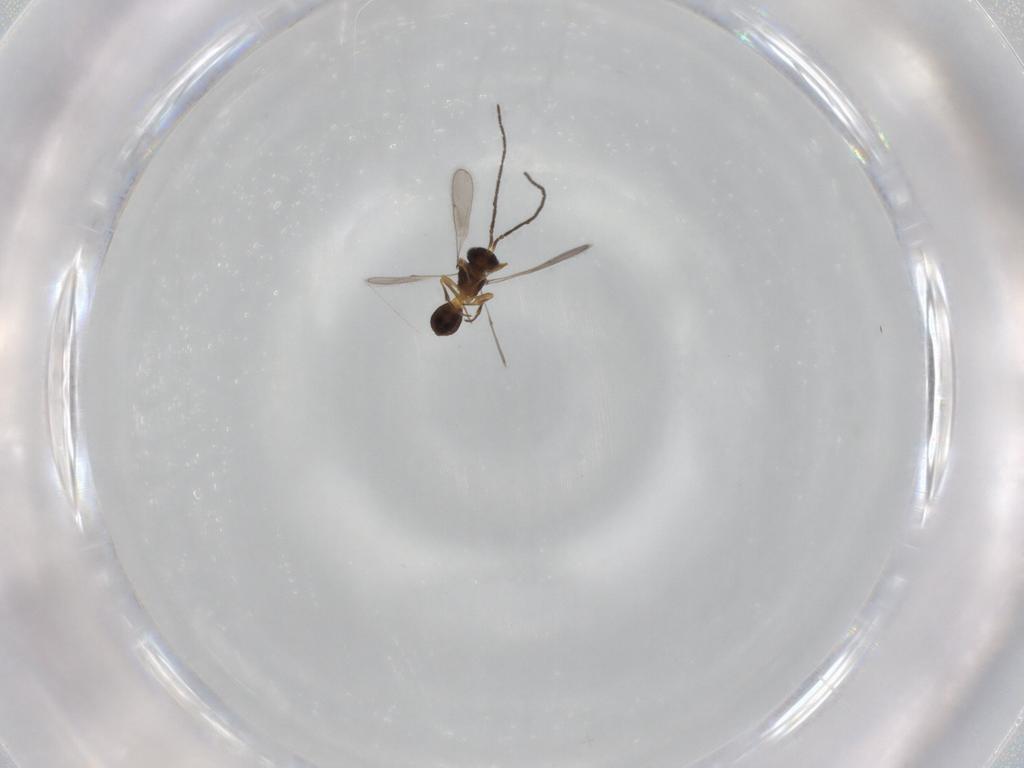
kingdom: Animalia
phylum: Arthropoda
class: Insecta
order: Hymenoptera
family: Scelionidae
